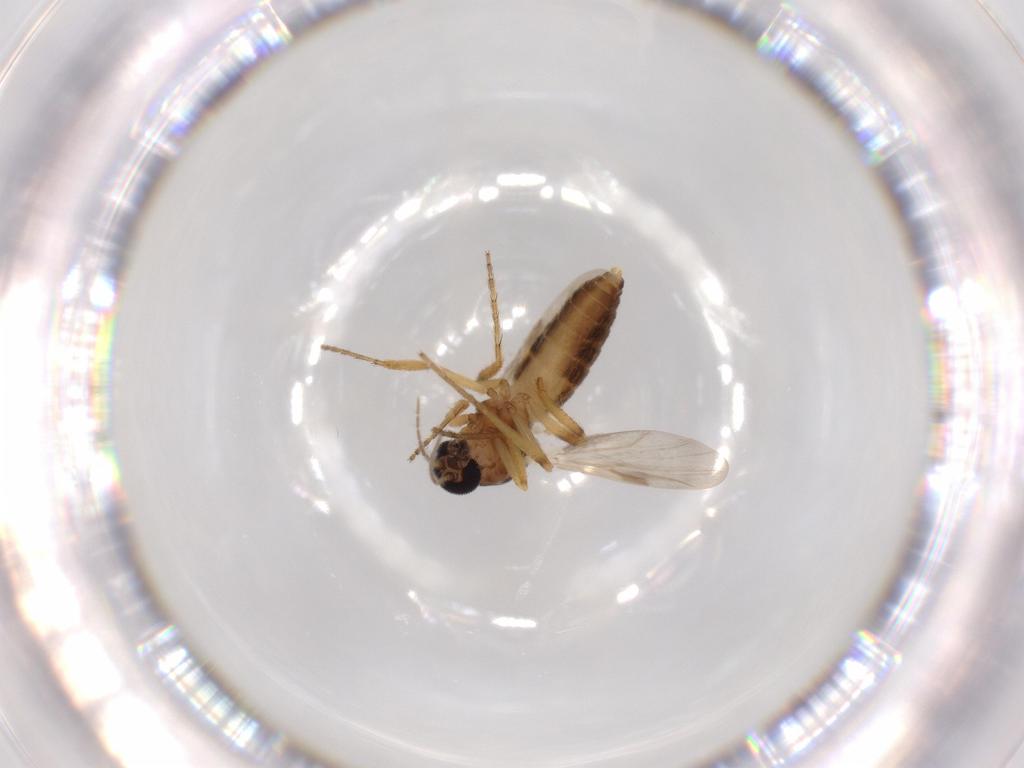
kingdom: Animalia
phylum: Arthropoda
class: Insecta
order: Diptera
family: Ceratopogonidae
